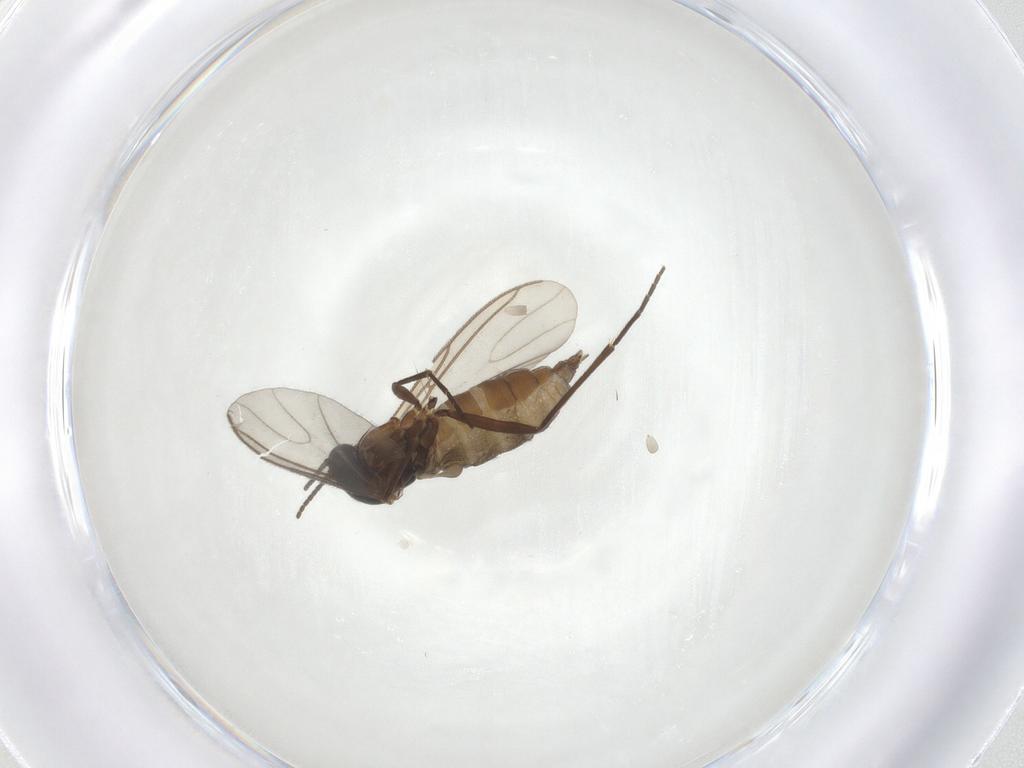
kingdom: Animalia
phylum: Arthropoda
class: Insecta
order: Diptera
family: Sciaridae
